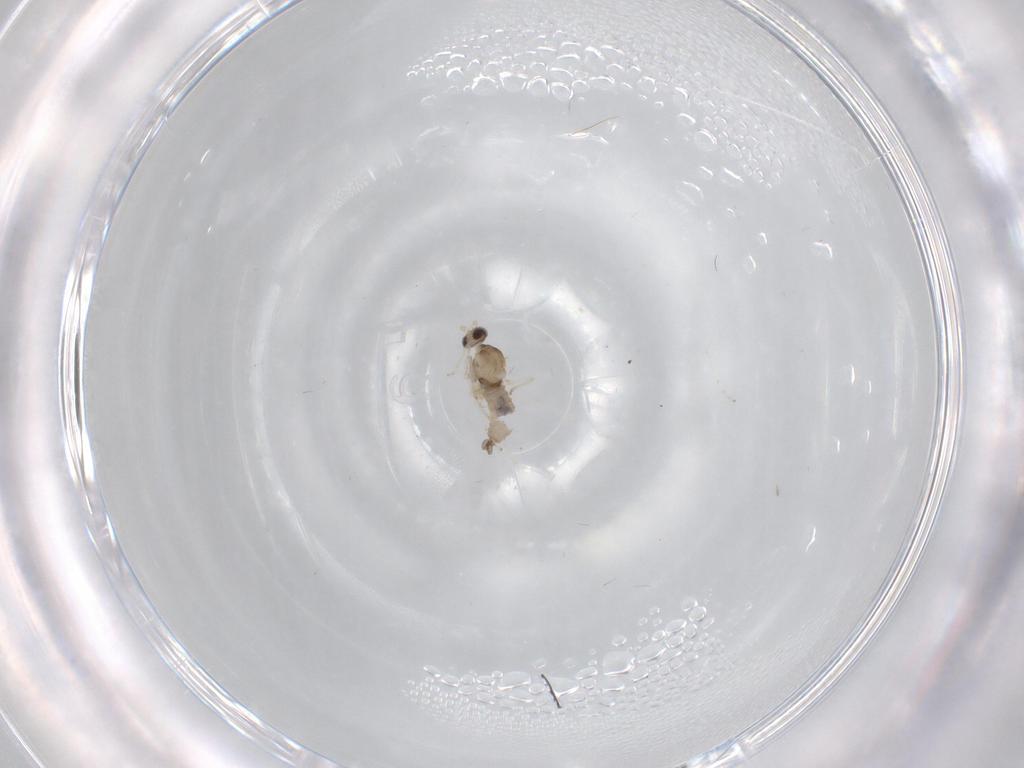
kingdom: Animalia
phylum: Arthropoda
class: Insecta
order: Diptera
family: Cecidomyiidae
